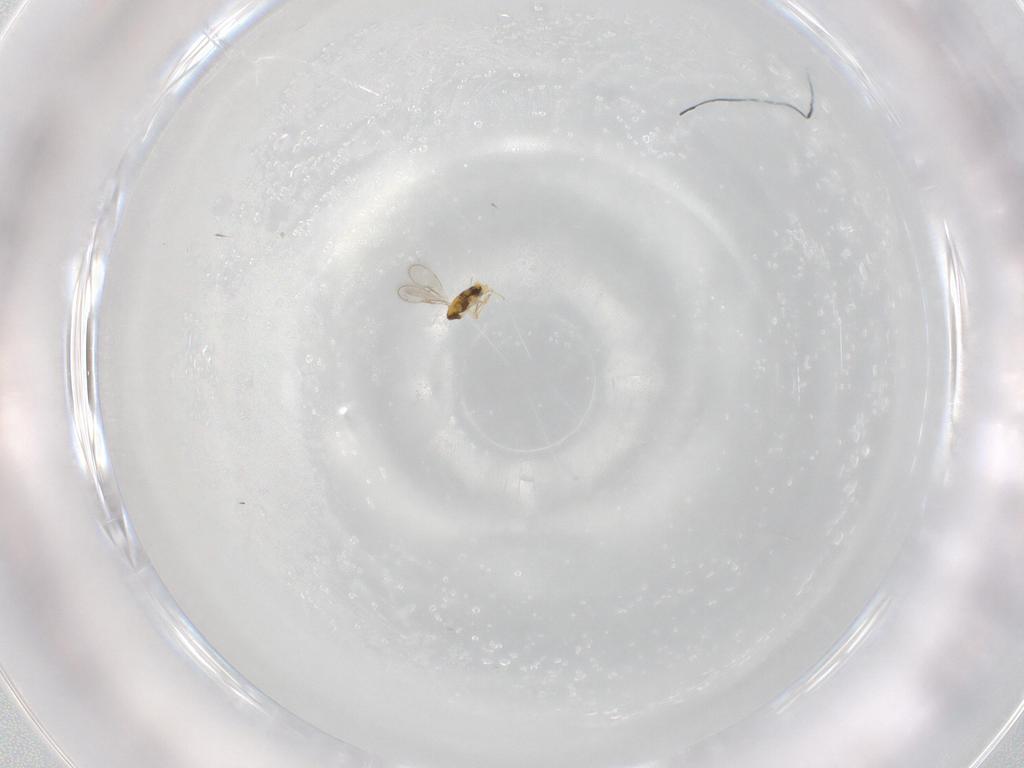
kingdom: Animalia
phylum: Arthropoda
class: Insecta
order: Hymenoptera
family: Aphelinidae
